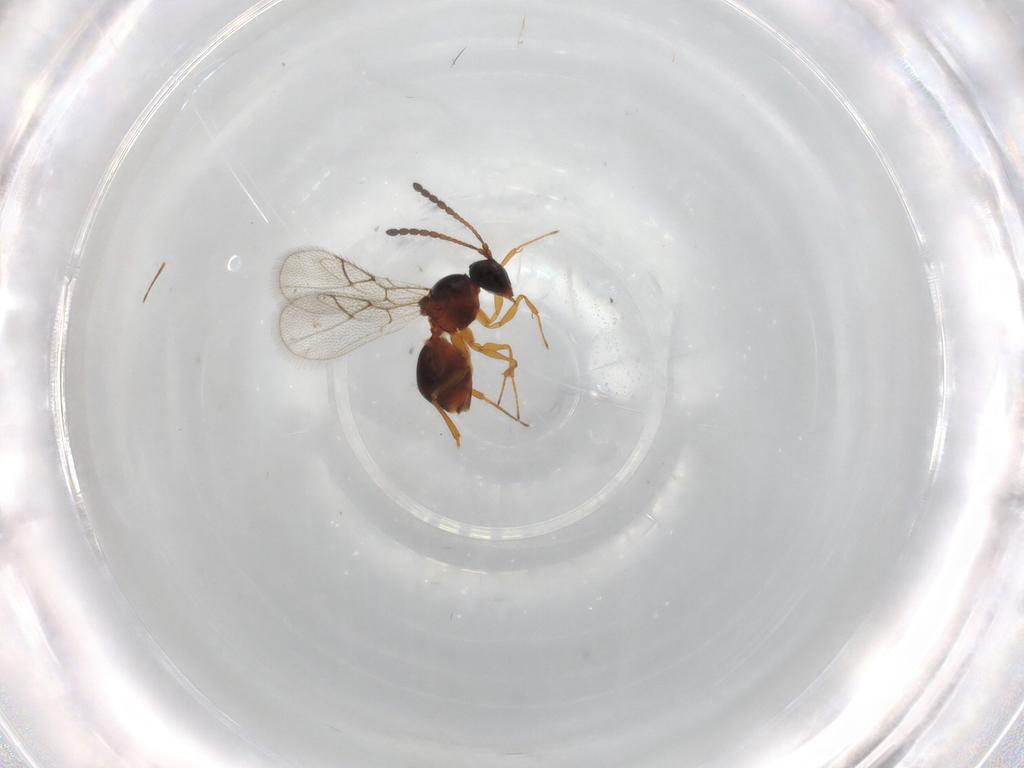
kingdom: Animalia
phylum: Arthropoda
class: Insecta
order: Hymenoptera
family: Figitidae
